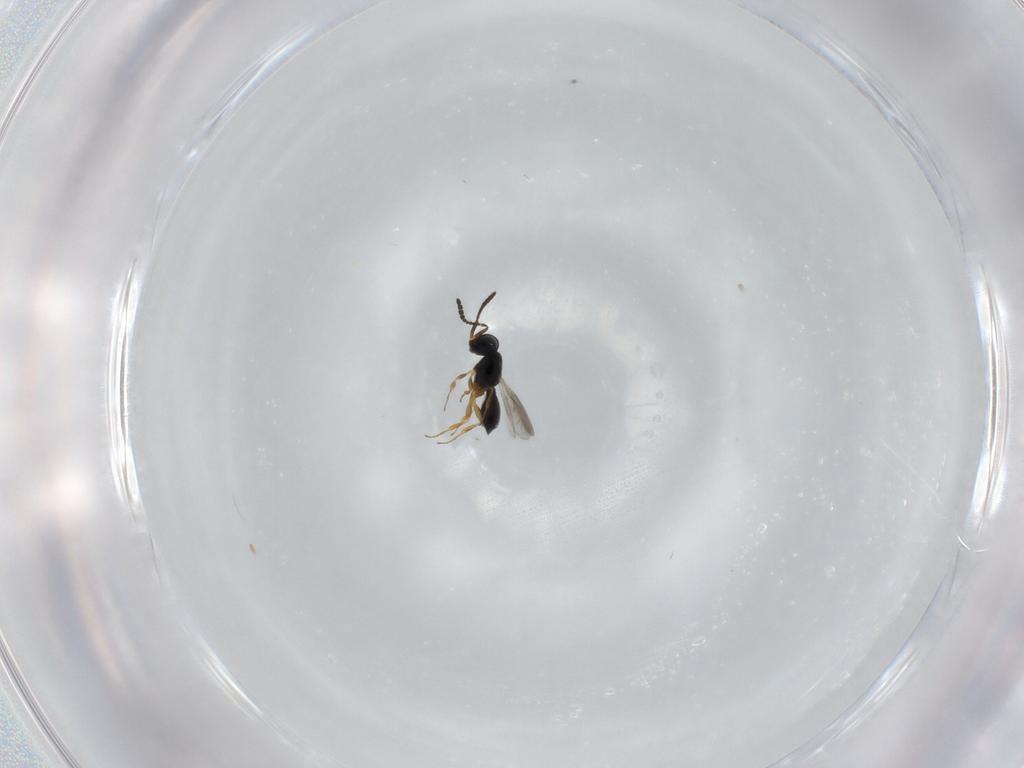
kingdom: Animalia
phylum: Arthropoda
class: Insecta
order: Hymenoptera
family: Scelionidae
